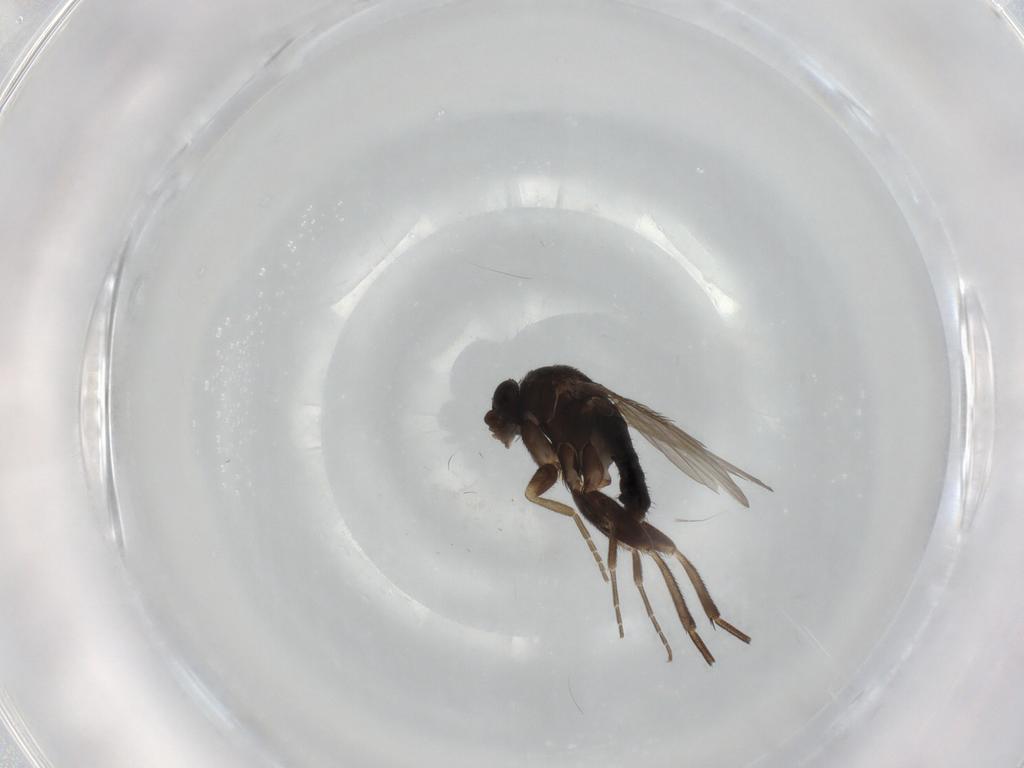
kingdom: Animalia
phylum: Arthropoda
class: Insecta
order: Diptera
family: Phoridae
